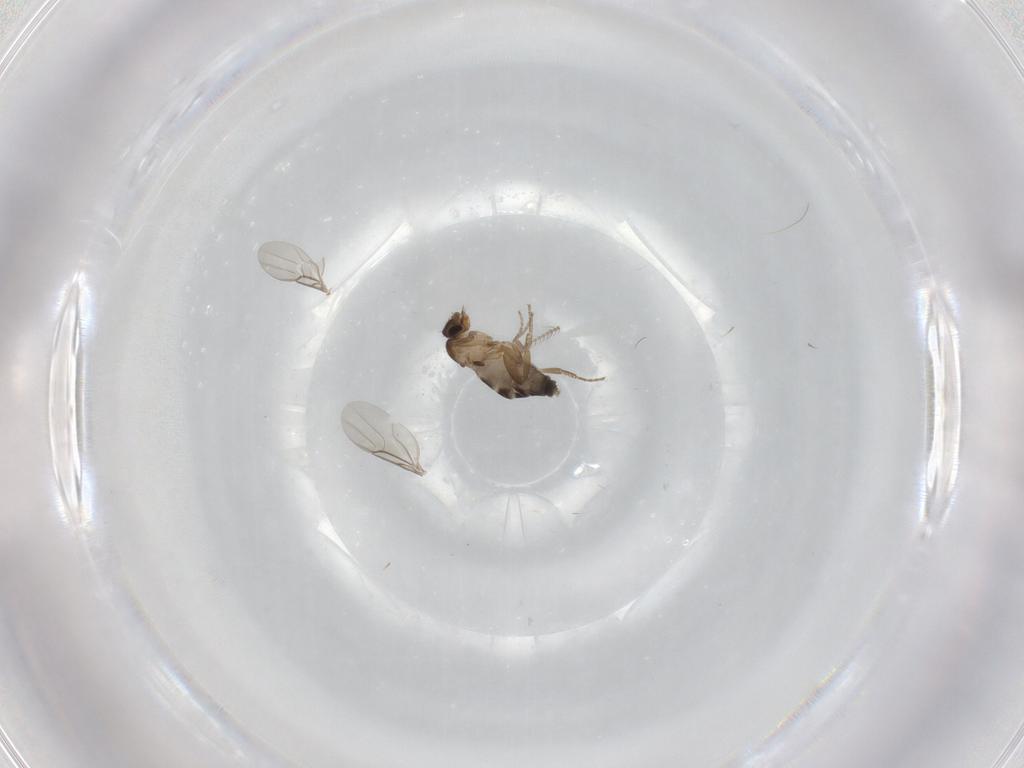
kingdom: Animalia
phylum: Arthropoda
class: Insecta
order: Diptera
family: Phoridae
